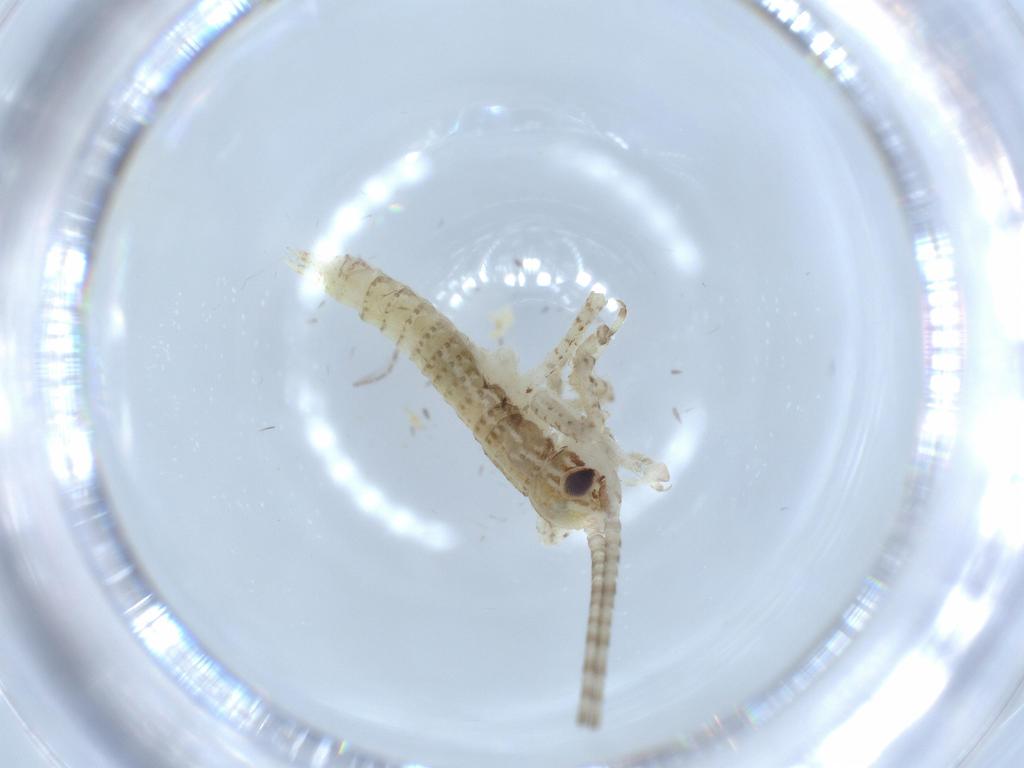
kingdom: Animalia
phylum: Arthropoda
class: Insecta
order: Orthoptera
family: Gryllidae
